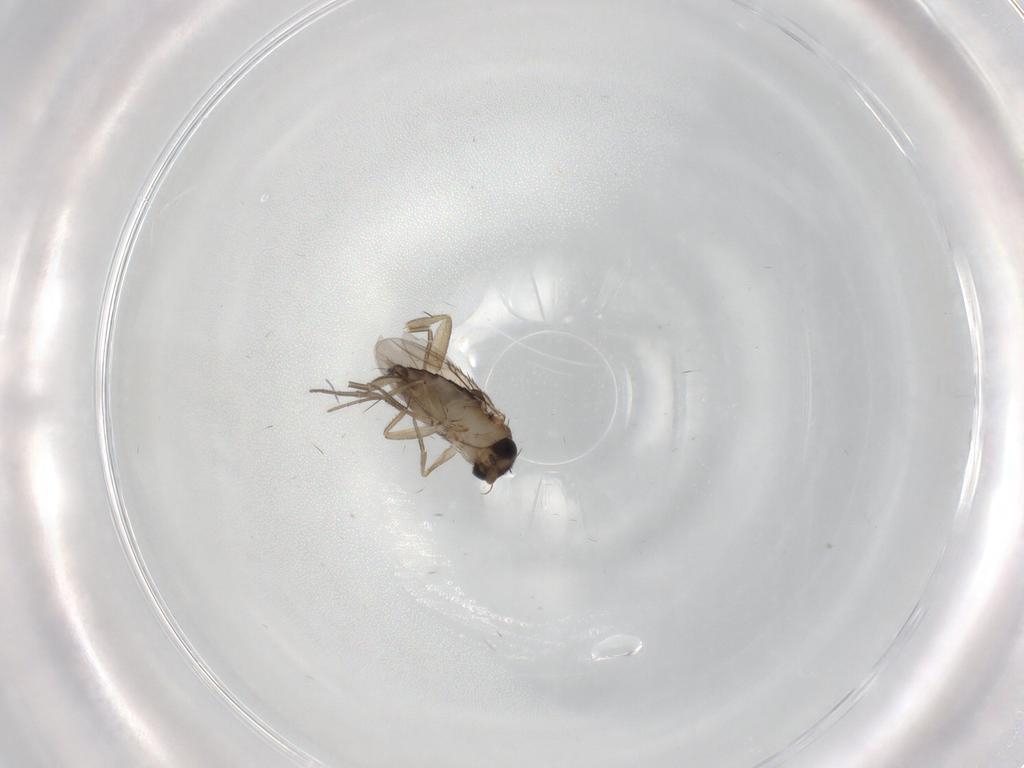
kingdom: Animalia
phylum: Arthropoda
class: Insecta
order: Diptera
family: Phoridae
